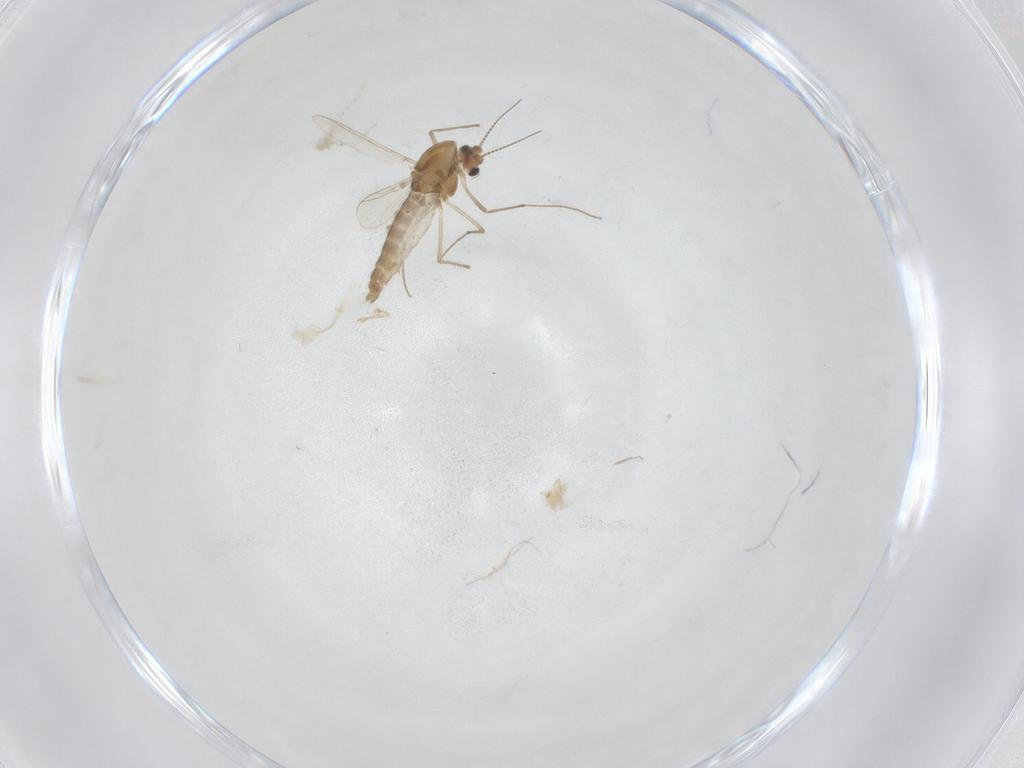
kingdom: Animalia
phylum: Arthropoda
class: Insecta
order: Diptera
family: Chironomidae
